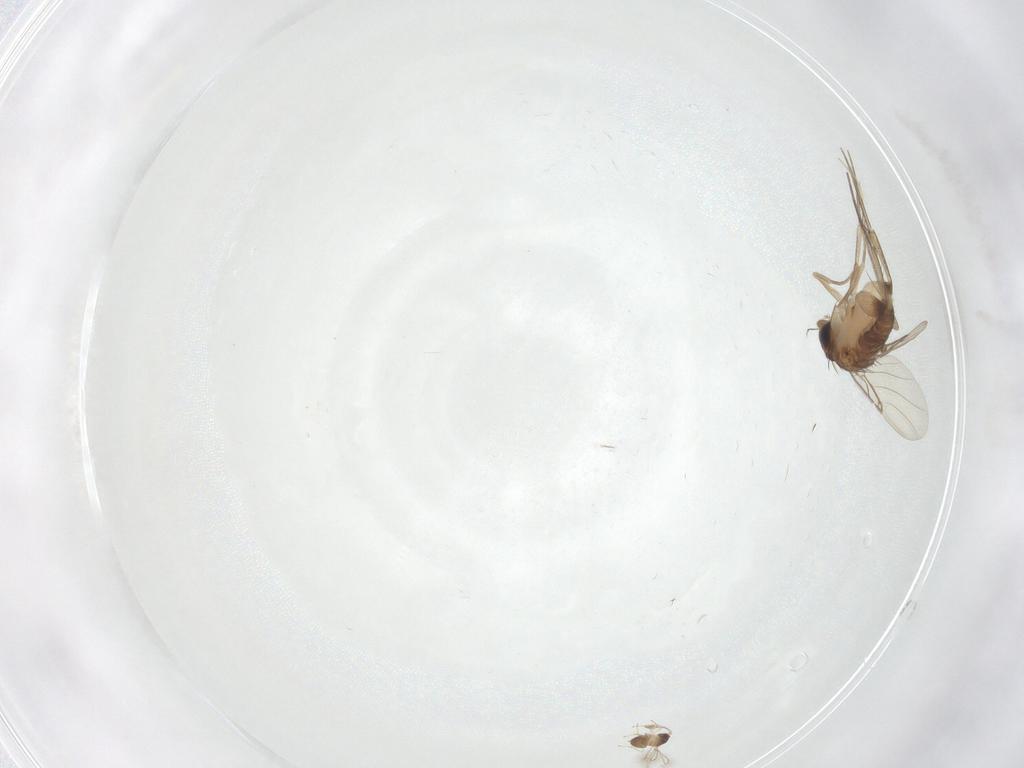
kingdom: Animalia
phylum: Arthropoda
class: Insecta
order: Diptera
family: Phoridae
